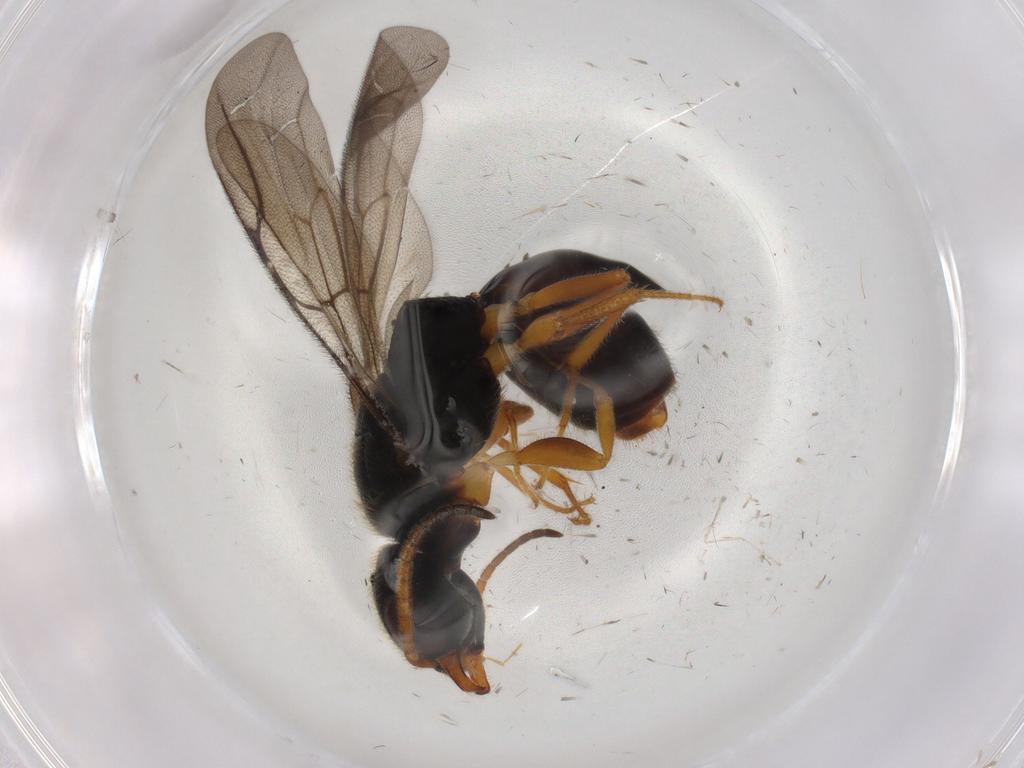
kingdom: Animalia
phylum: Arthropoda
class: Insecta
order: Hymenoptera
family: Bethylidae
